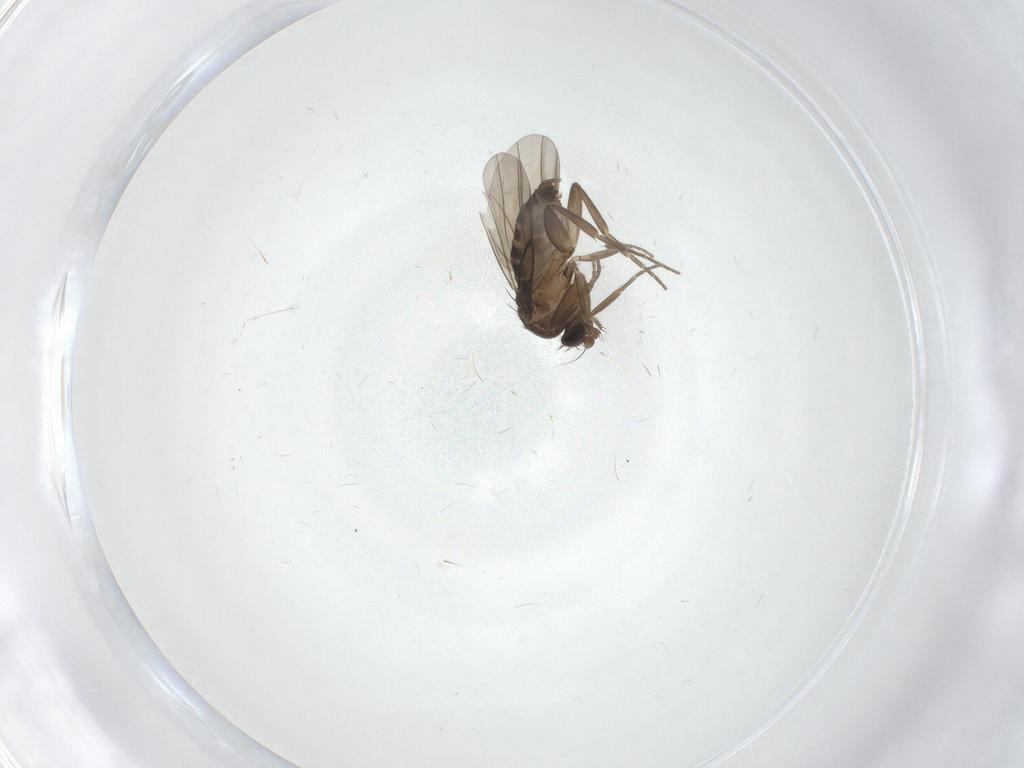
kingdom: Animalia
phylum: Arthropoda
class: Insecta
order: Diptera
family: Phoridae
